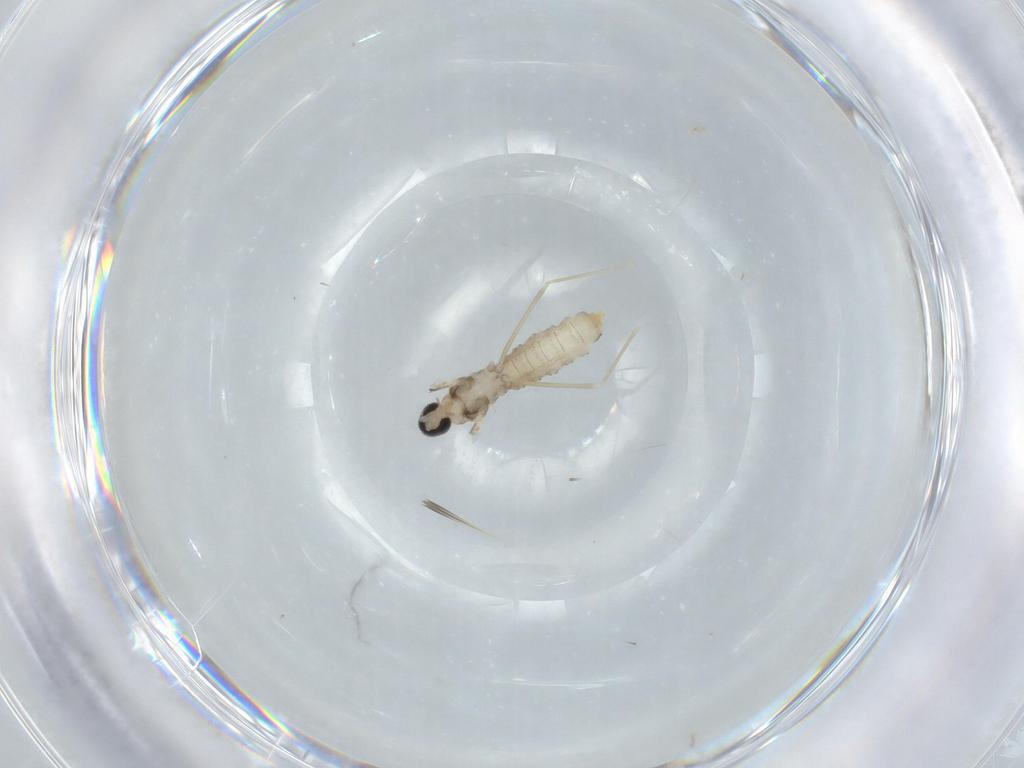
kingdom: Animalia
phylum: Arthropoda
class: Insecta
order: Diptera
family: Cecidomyiidae
